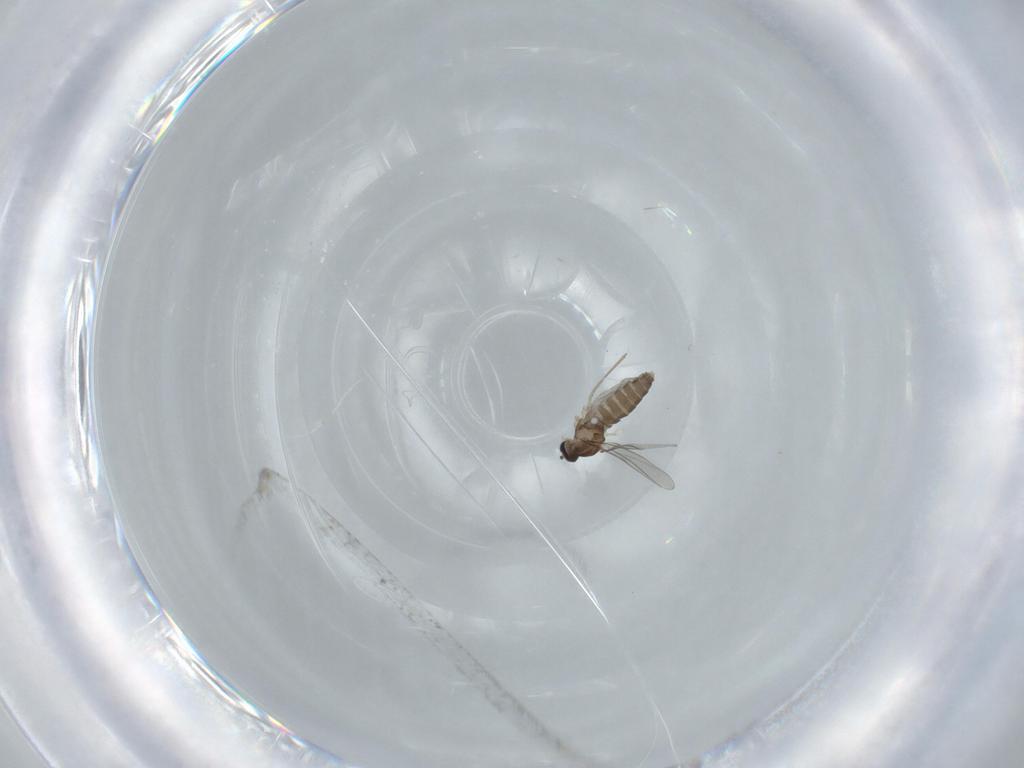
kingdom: Animalia
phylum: Arthropoda
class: Insecta
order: Diptera
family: Cecidomyiidae
